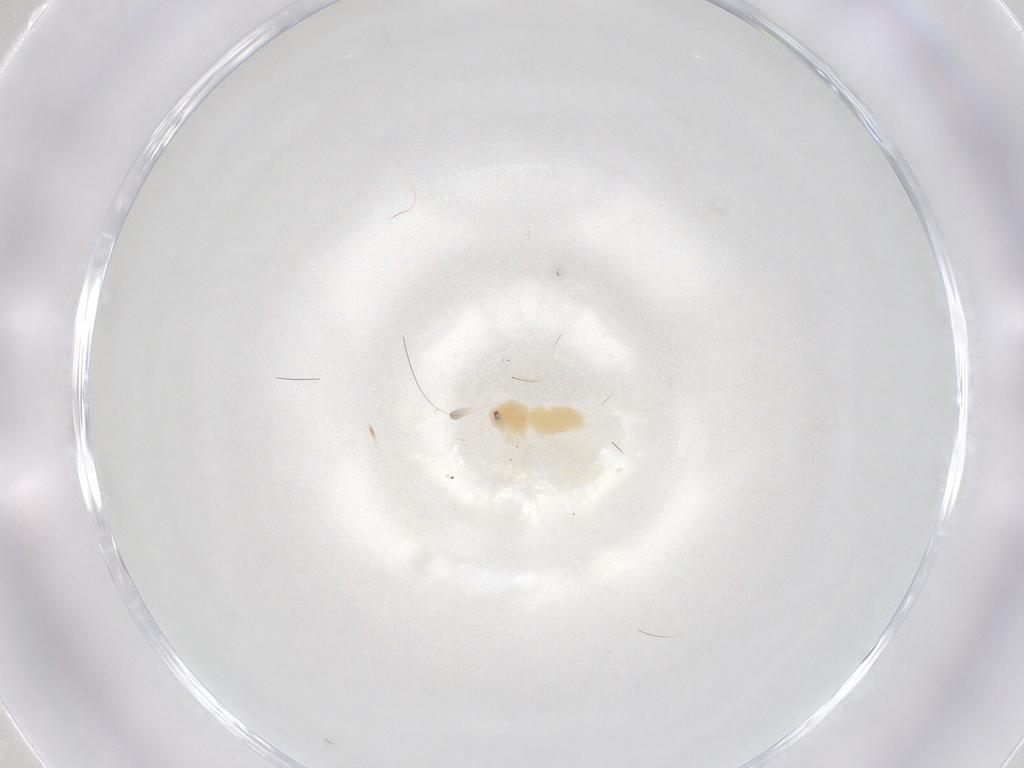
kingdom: Animalia
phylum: Arthropoda
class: Insecta
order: Hemiptera
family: Aleyrodidae
